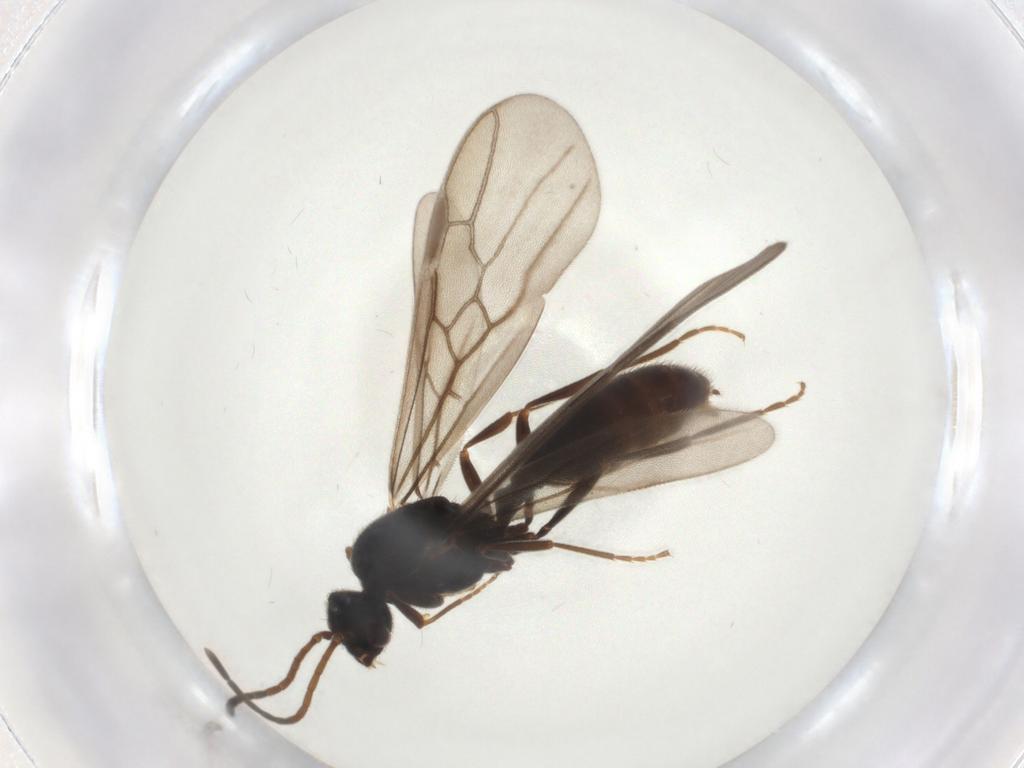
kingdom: Animalia
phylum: Arthropoda
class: Insecta
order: Hymenoptera
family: Formicidae
